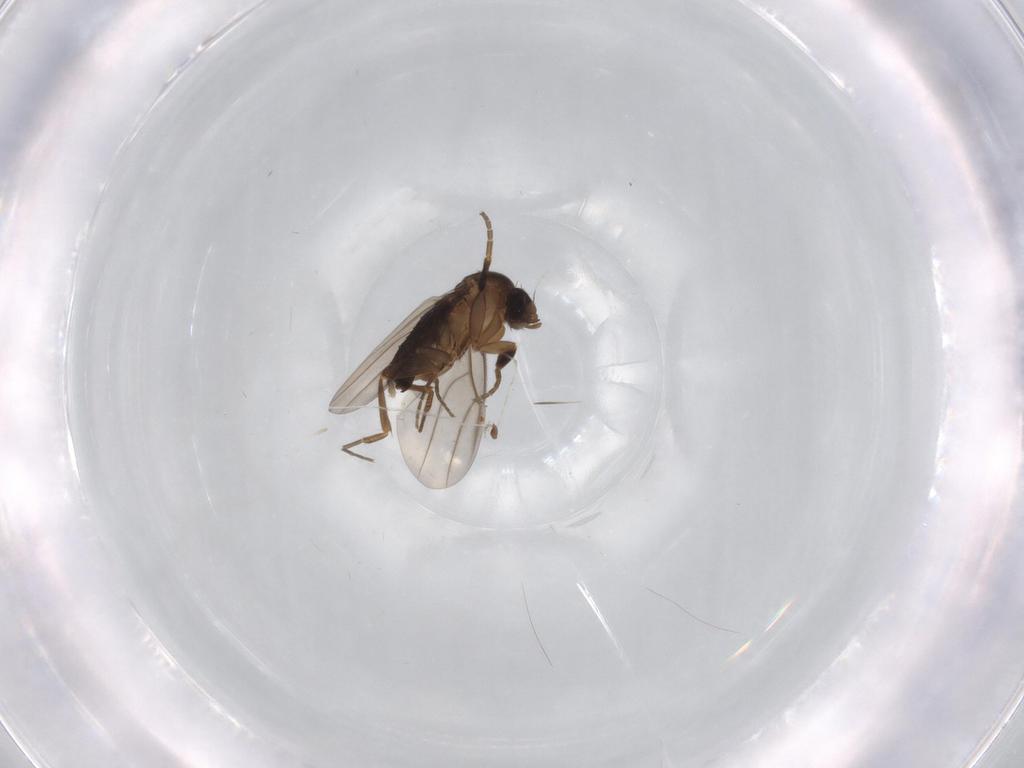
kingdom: Animalia
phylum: Arthropoda
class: Insecta
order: Diptera
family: Phoridae
